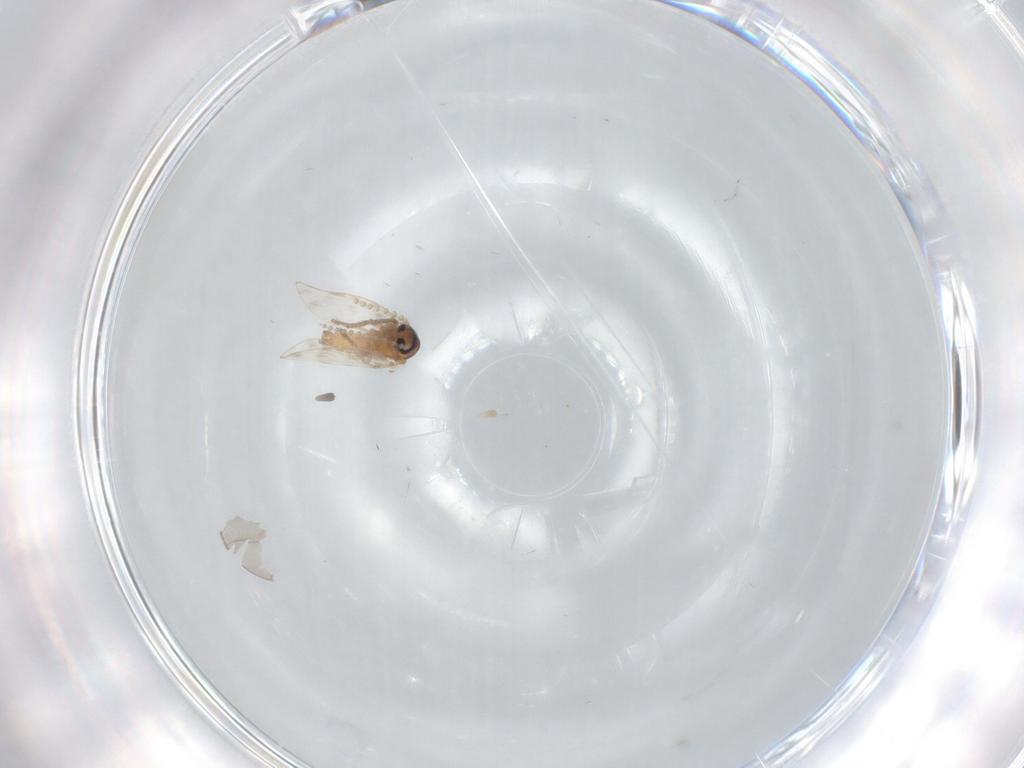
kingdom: Animalia
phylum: Arthropoda
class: Insecta
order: Diptera
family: Psychodidae
